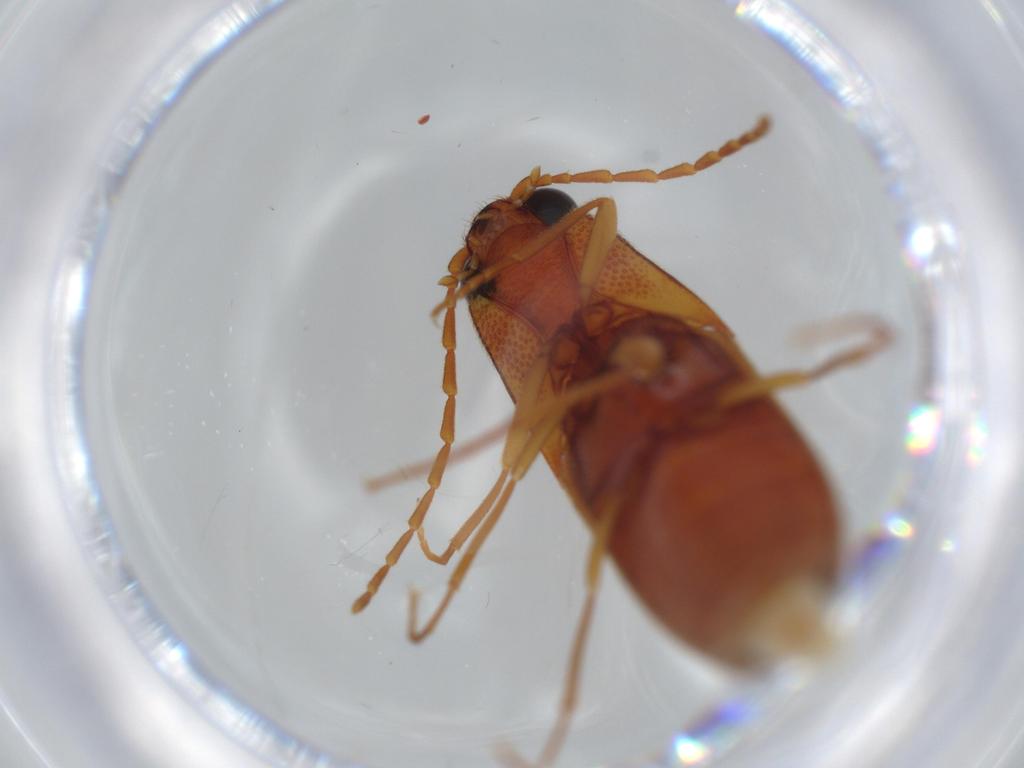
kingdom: Animalia
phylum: Arthropoda
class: Insecta
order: Coleoptera
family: Elateridae
